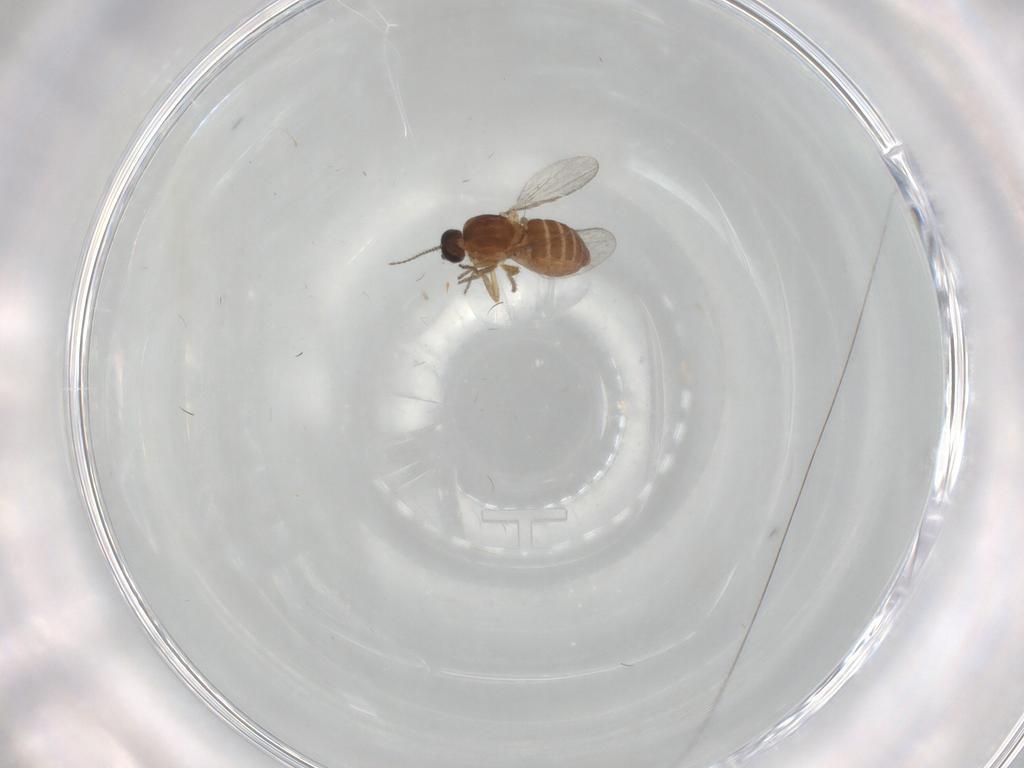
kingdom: Animalia
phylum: Arthropoda
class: Insecta
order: Diptera
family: Ceratopogonidae
